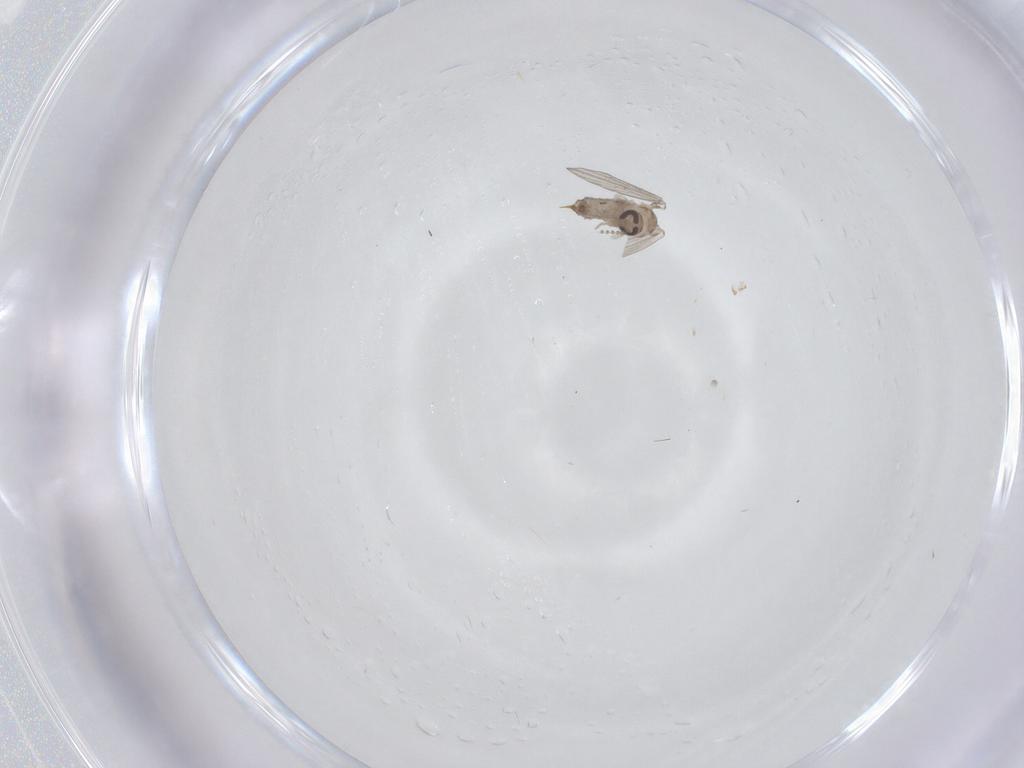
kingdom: Animalia
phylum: Arthropoda
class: Insecta
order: Diptera
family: Psychodidae
